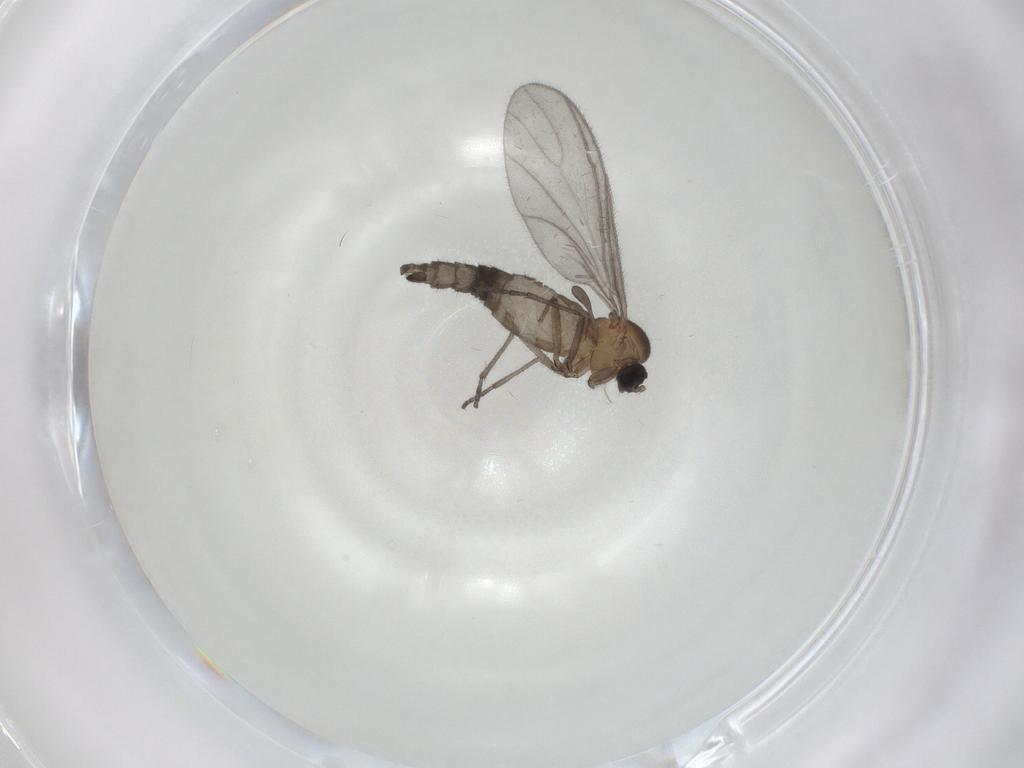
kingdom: Animalia
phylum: Arthropoda
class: Insecta
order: Diptera
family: Sciaridae
